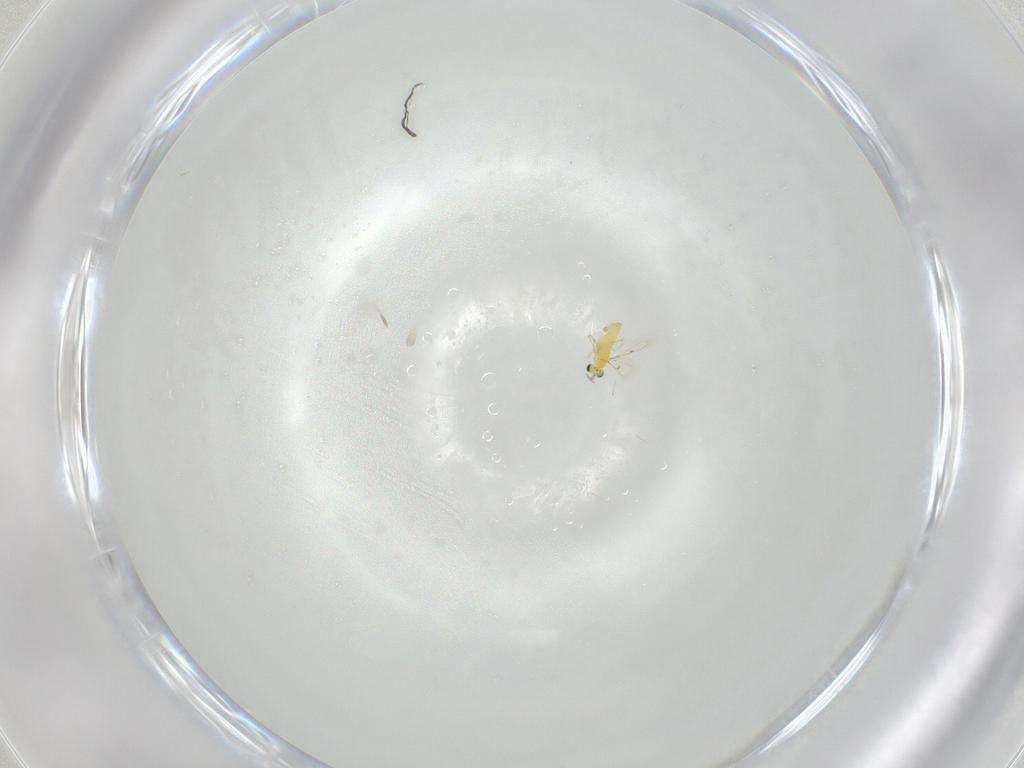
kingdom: Animalia
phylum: Arthropoda
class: Insecta
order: Hymenoptera
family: Trichogrammatidae
